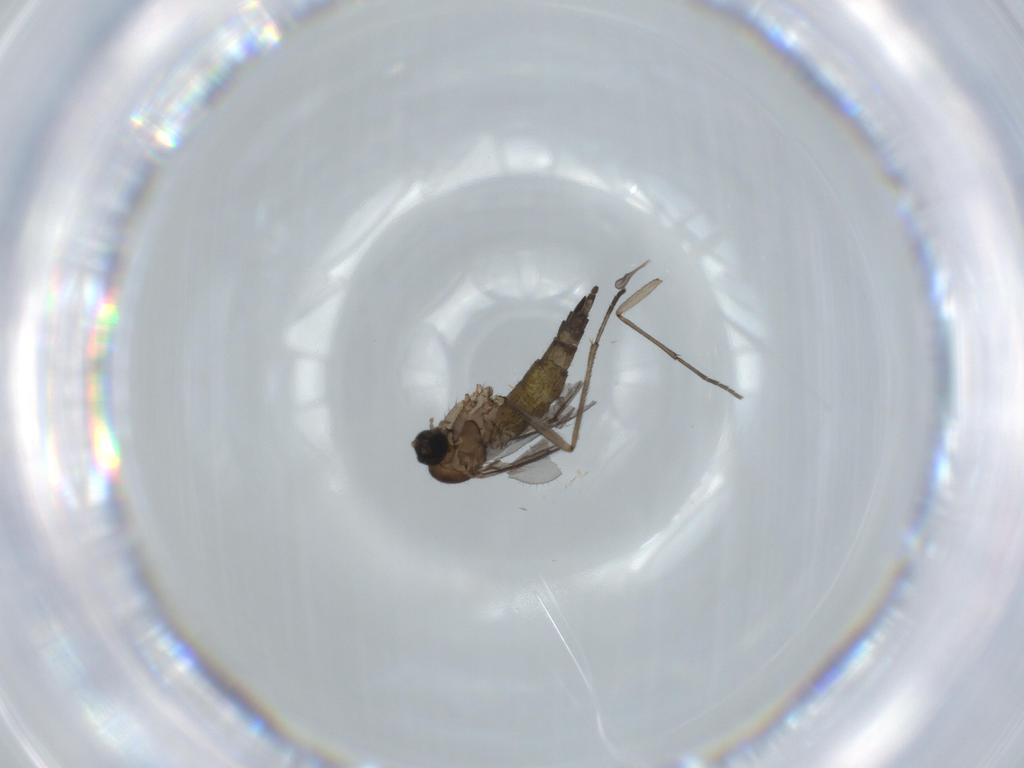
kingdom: Animalia
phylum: Arthropoda
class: Insecta
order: Diptera
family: Sciaridae
